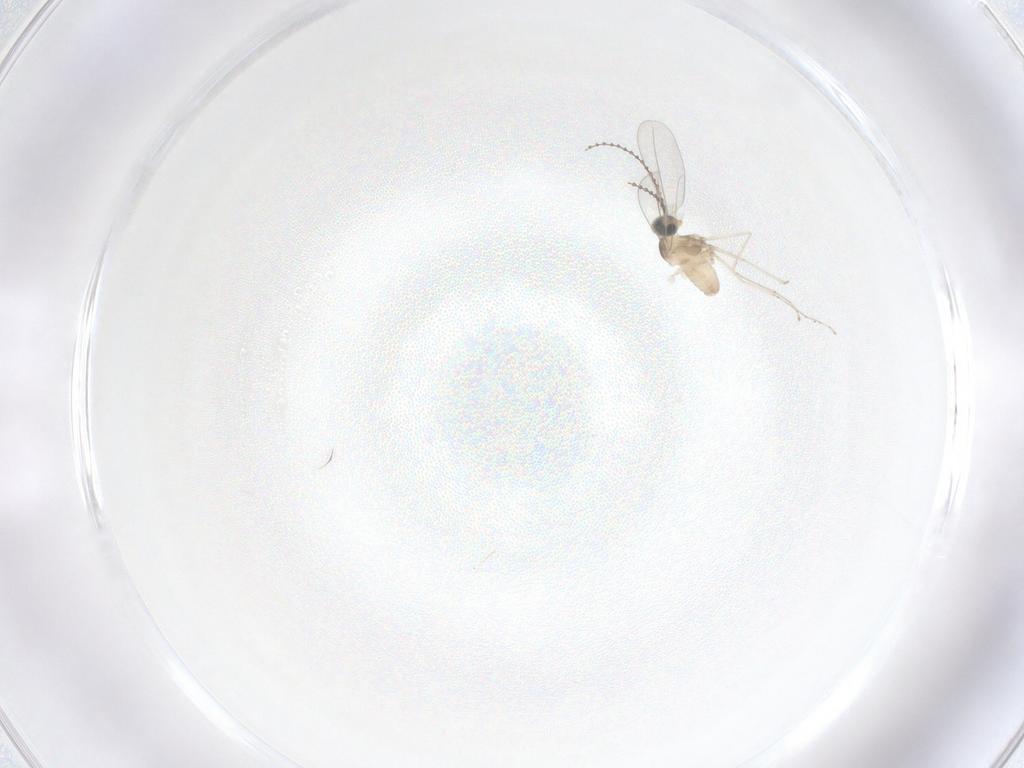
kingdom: Animalia
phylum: Arthropoda
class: Insecta
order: Diptera
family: Cecidomyiidae
